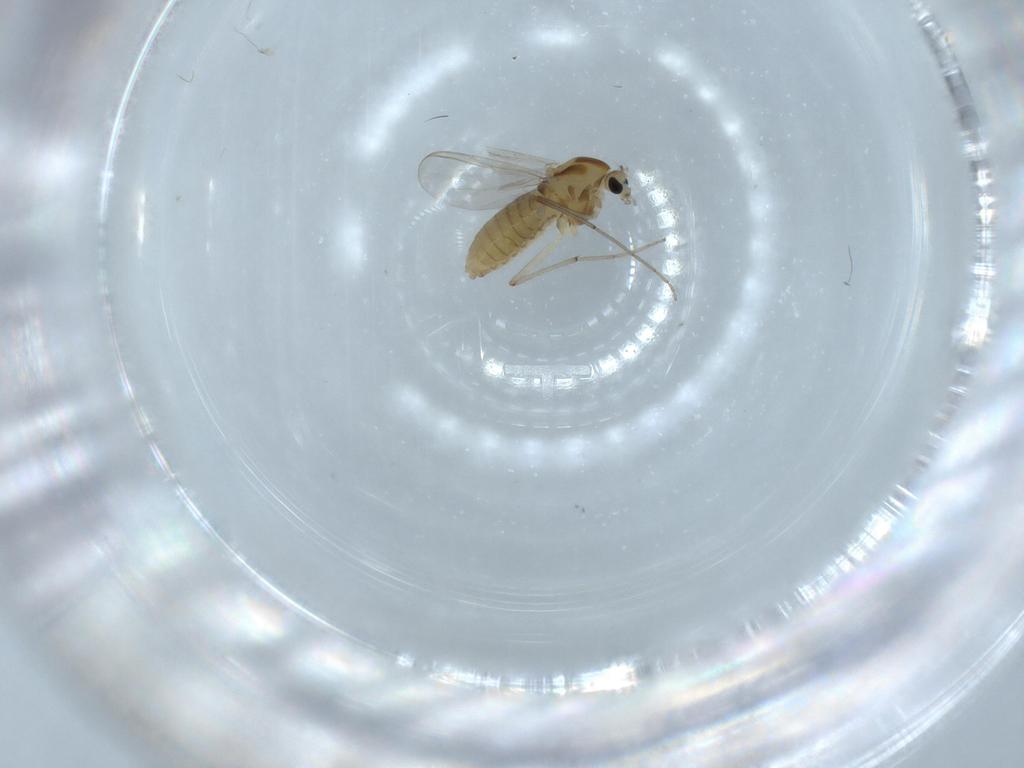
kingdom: Animalia
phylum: Arthropoda
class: Insecta
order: Diptera
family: Chironomidae
